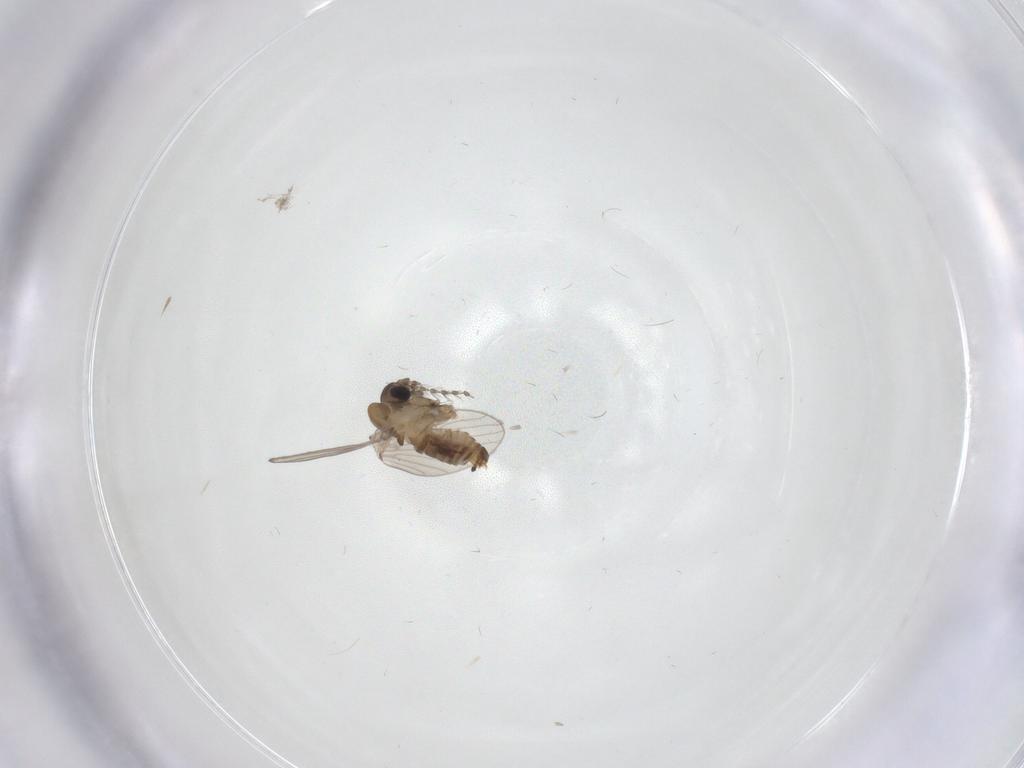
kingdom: Animalia
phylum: Arthropoda
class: Insecta
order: Diptera
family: Psychodidae
